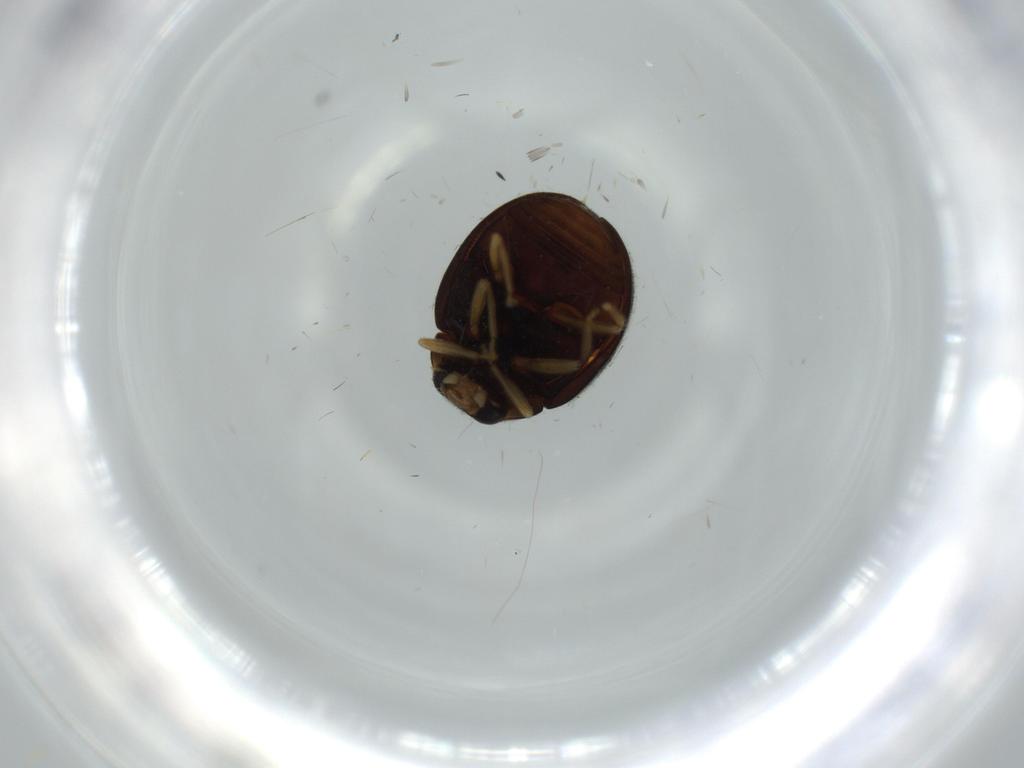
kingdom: Animalia
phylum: Arthropoda
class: Insecta
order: Coleoptera
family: Coccinellidae
